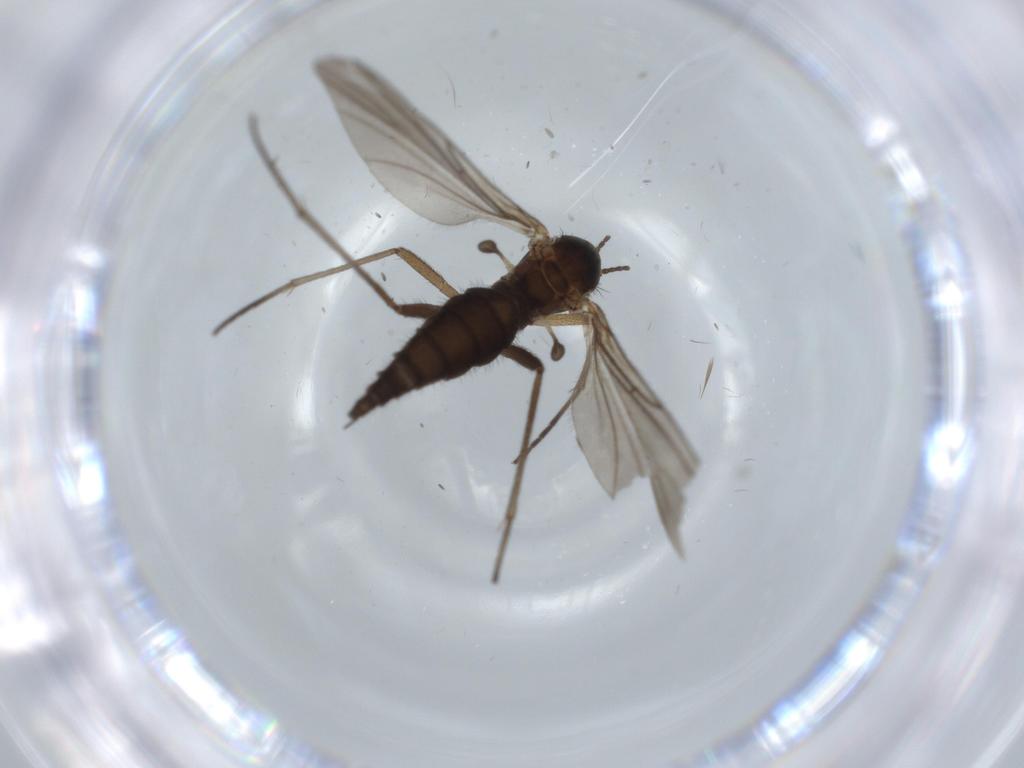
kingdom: Animalia
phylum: Arthropoda
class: Insecta
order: Diptera
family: Sciaridae
